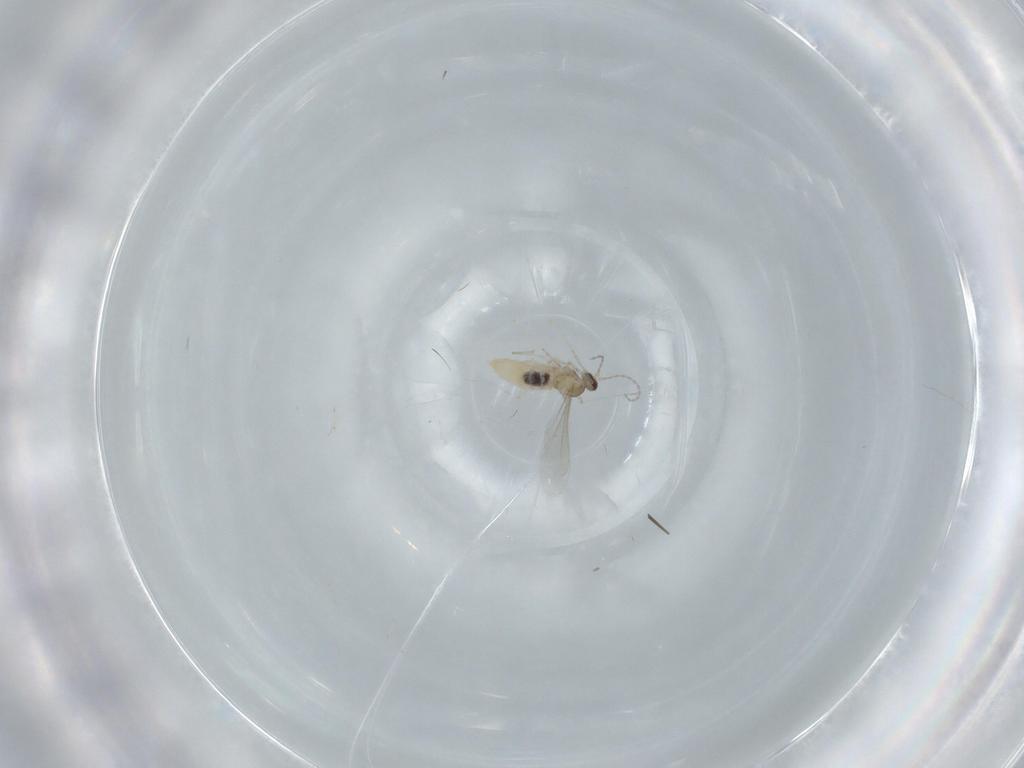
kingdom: Animalia
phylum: Arthropoda
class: Insecta
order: Diptera
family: Cecidomyiidae
